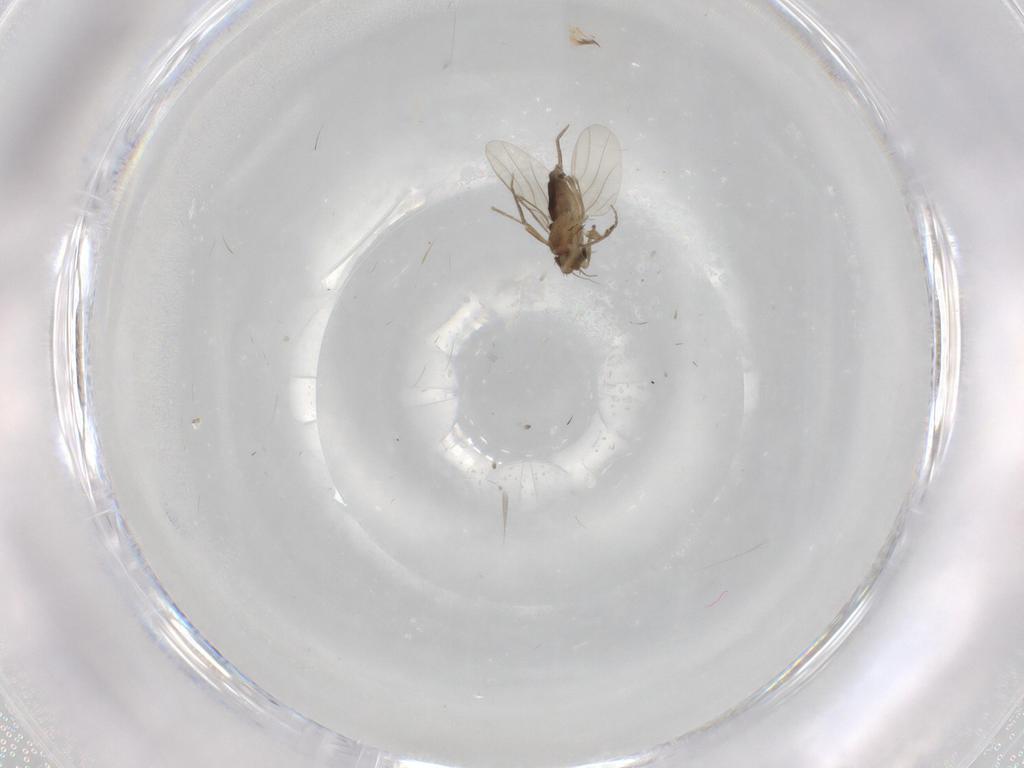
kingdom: Animalia
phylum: Arthropoda
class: Insecta
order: Diptera
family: Phoridae
